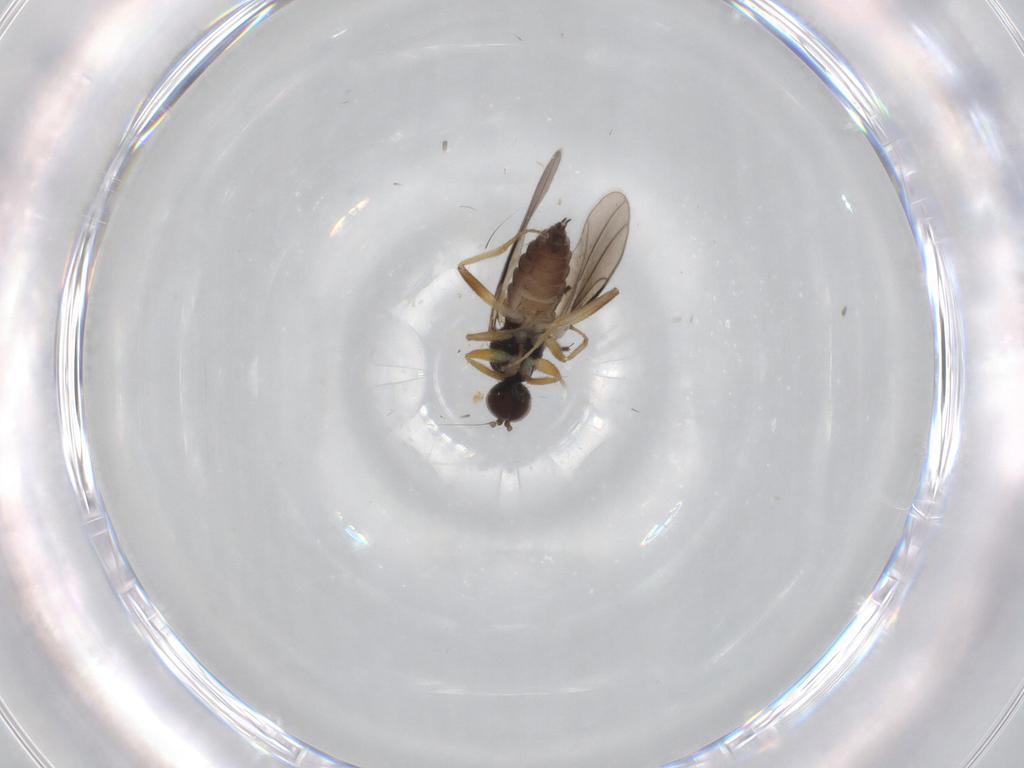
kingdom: Animalia
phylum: Arthropoda
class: Insecta
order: Diptera
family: Hybotidae
